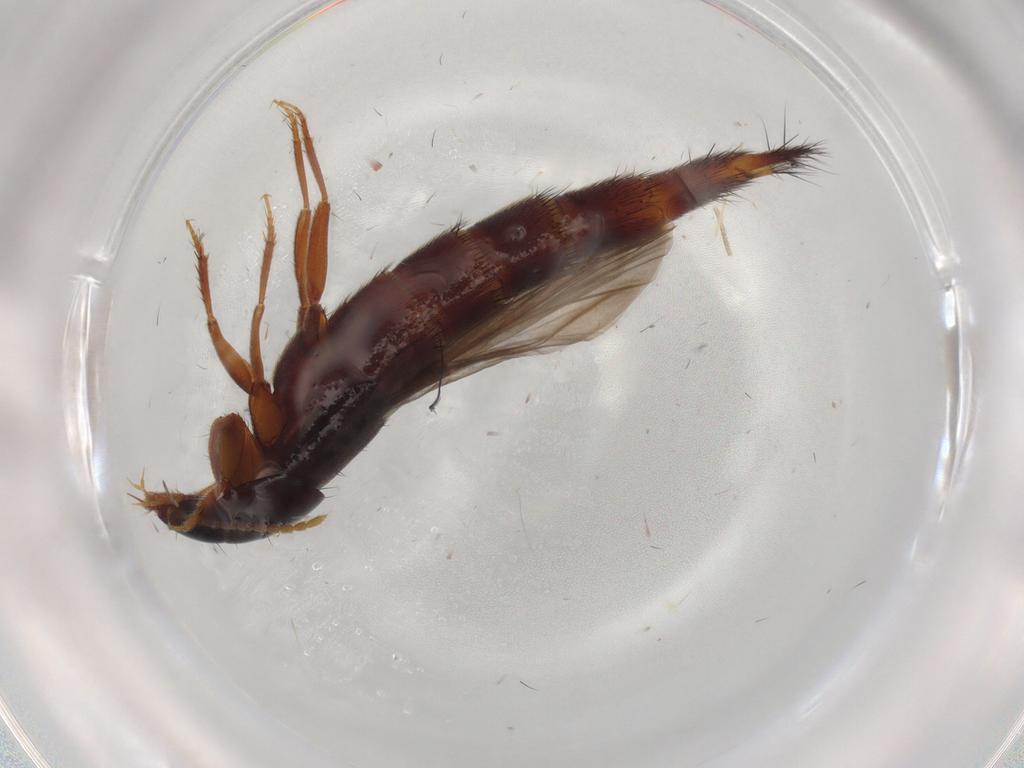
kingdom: Animalia
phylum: Arthropoda
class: Insecta
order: Coleoptera
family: Staphylinidae
